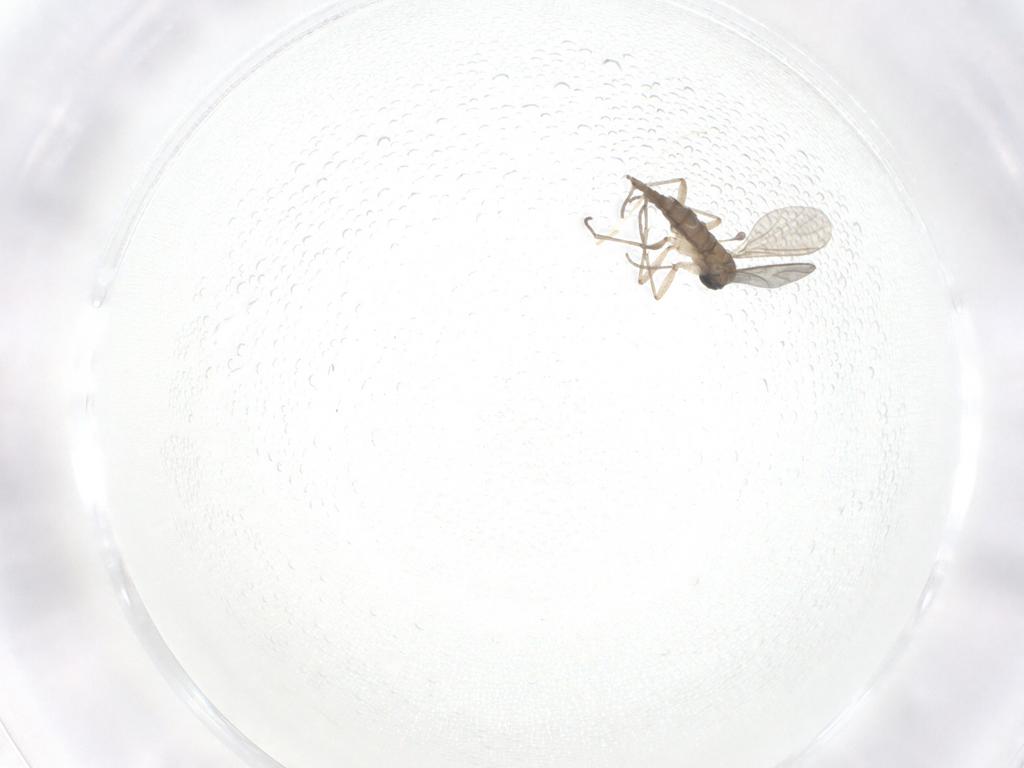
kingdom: Animalia
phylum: Arthropoda
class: Insecta
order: Diptera
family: Sciaridae
